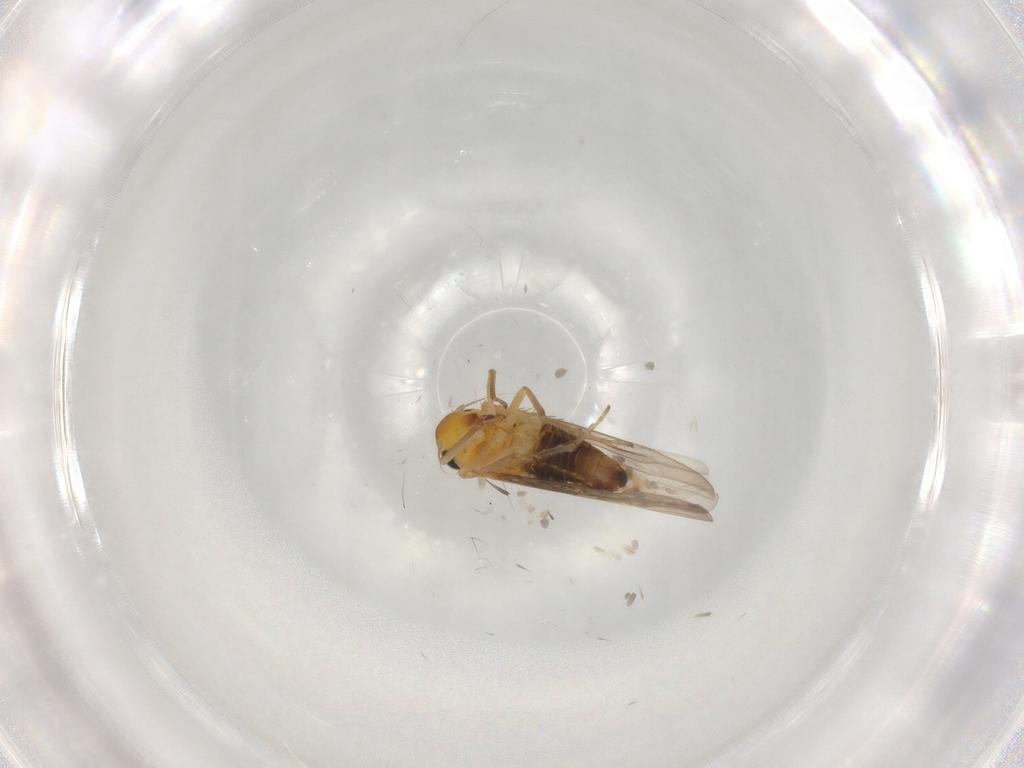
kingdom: Animalia
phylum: Arthropoda
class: Insecta
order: Hemiptera
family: Cicadellidae
